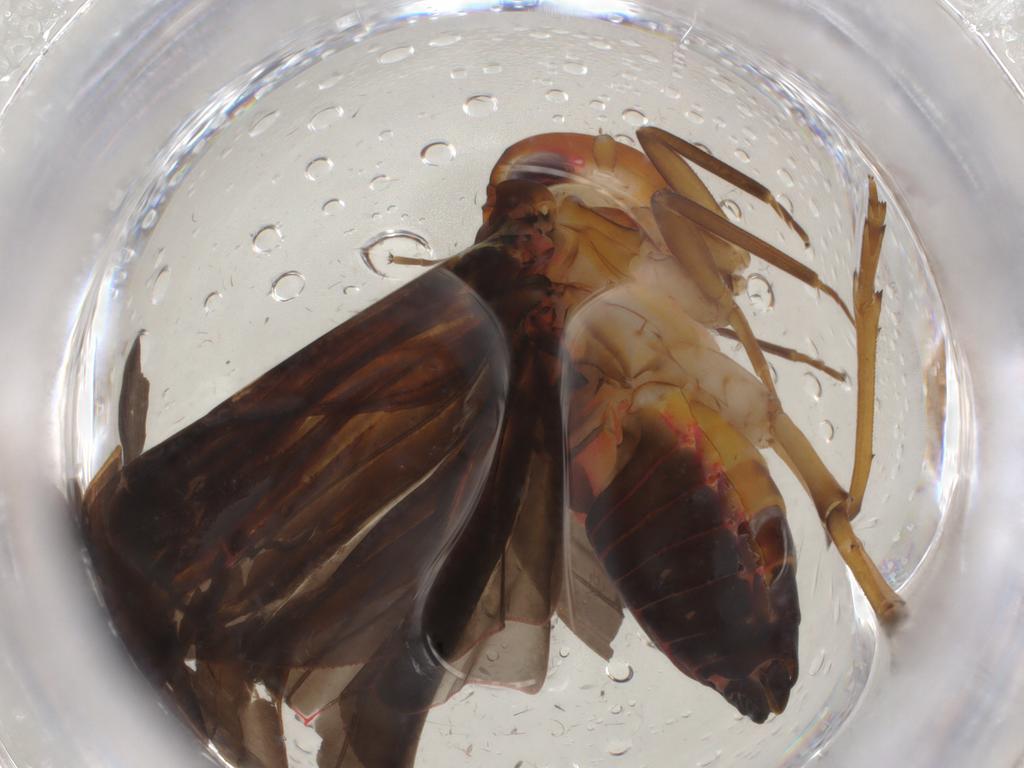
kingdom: Animalia
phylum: Arthropoda
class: Insecta
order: Hemiptera
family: Achilidae
